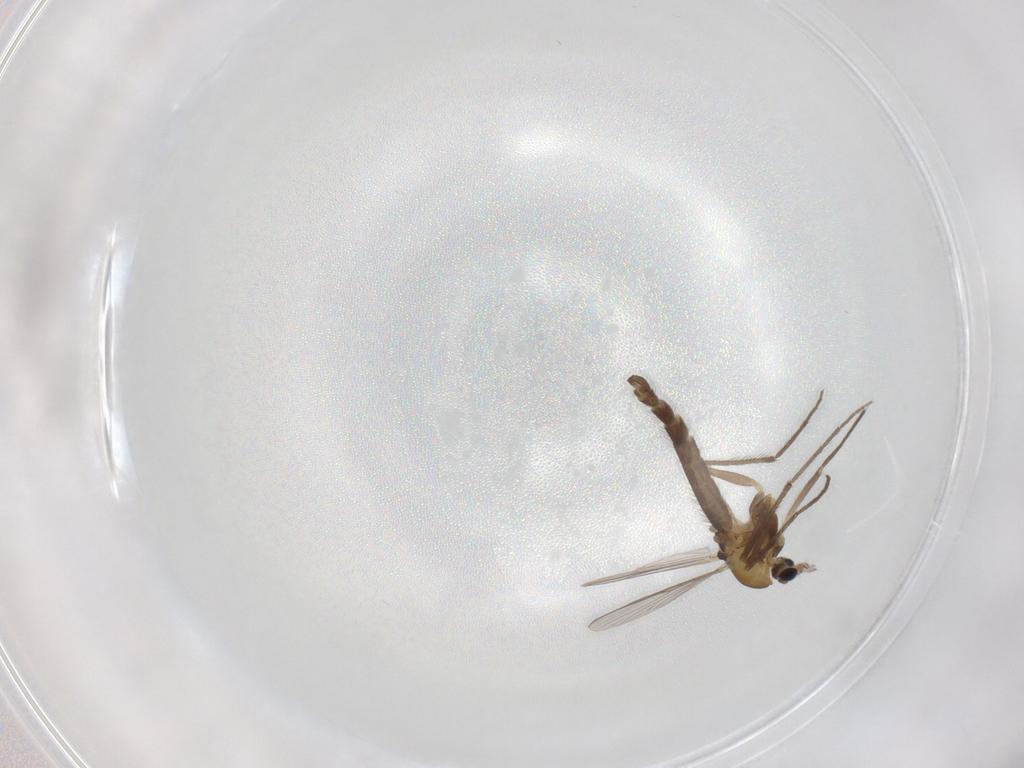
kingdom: Animalia
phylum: Arthropoda
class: Insecta
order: Diptera
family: Chironomidae
